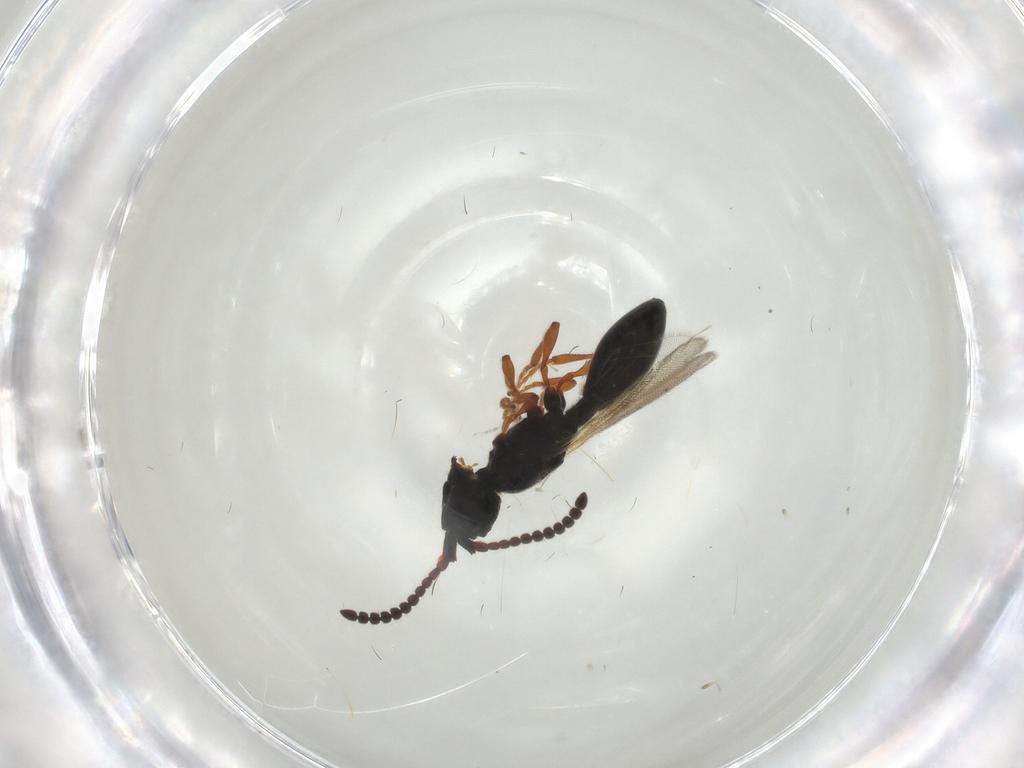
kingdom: Animalia
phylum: Arthropoda
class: Insecta
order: Hymenoptera
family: Diapriidae
